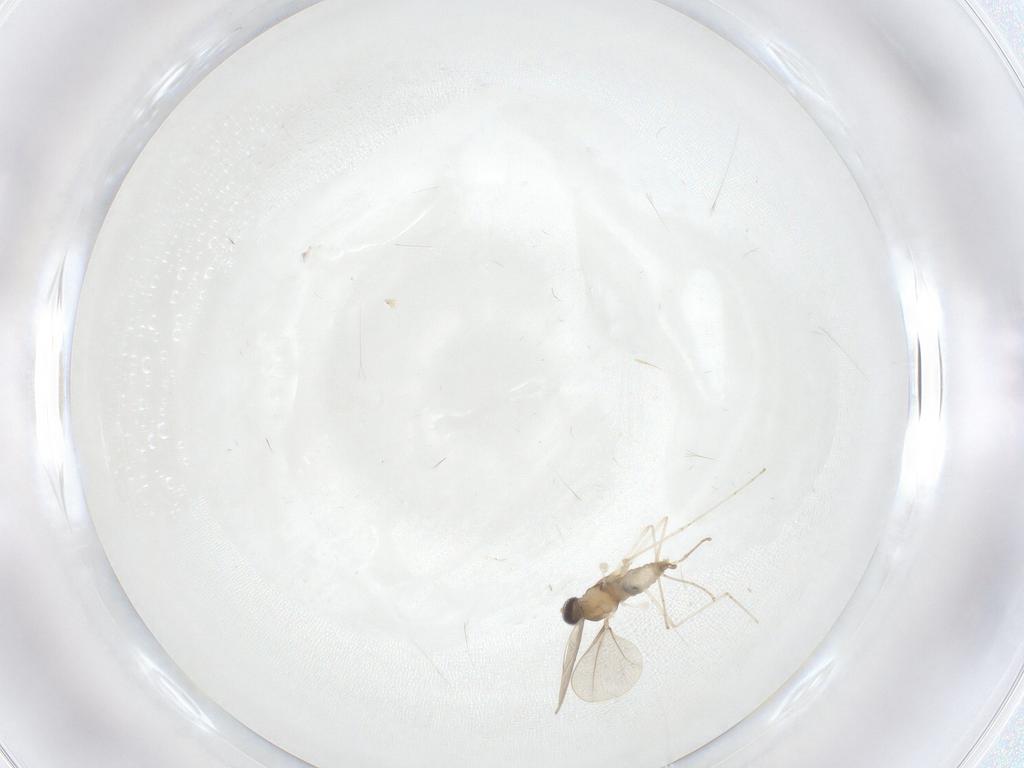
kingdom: Animalia
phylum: Arthropoda
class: Insecta
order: Diptera
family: Cecidomyiidae
